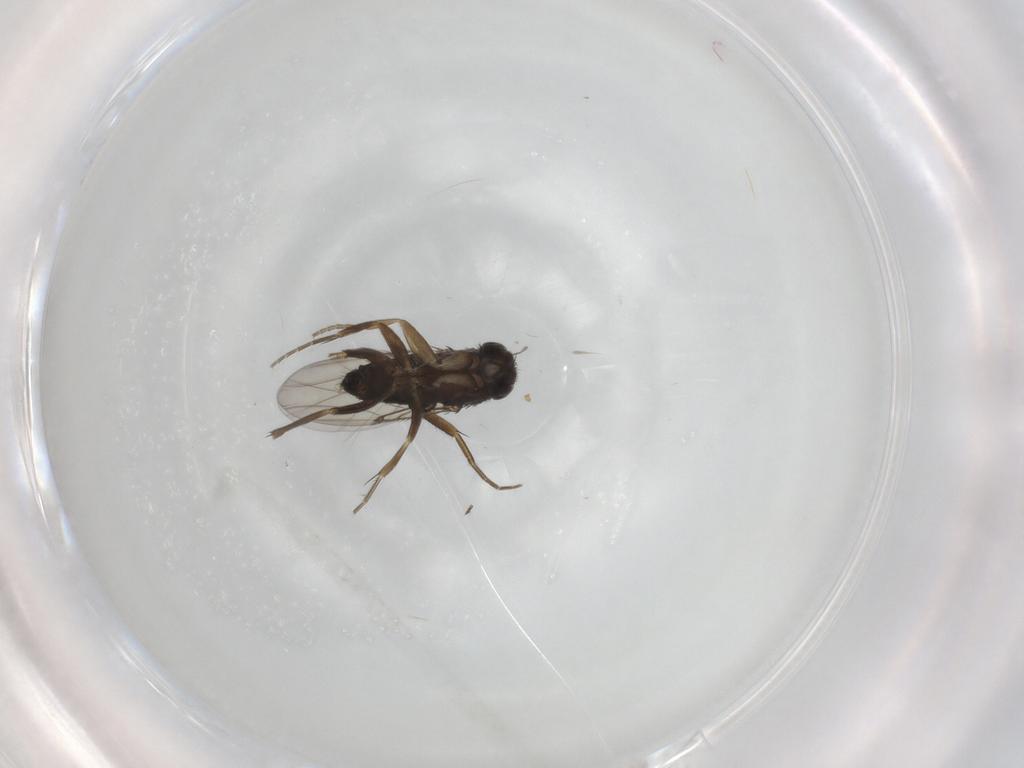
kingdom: Animalia
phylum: Arthropoda
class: Insecta
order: Diptera
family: Phoridae
